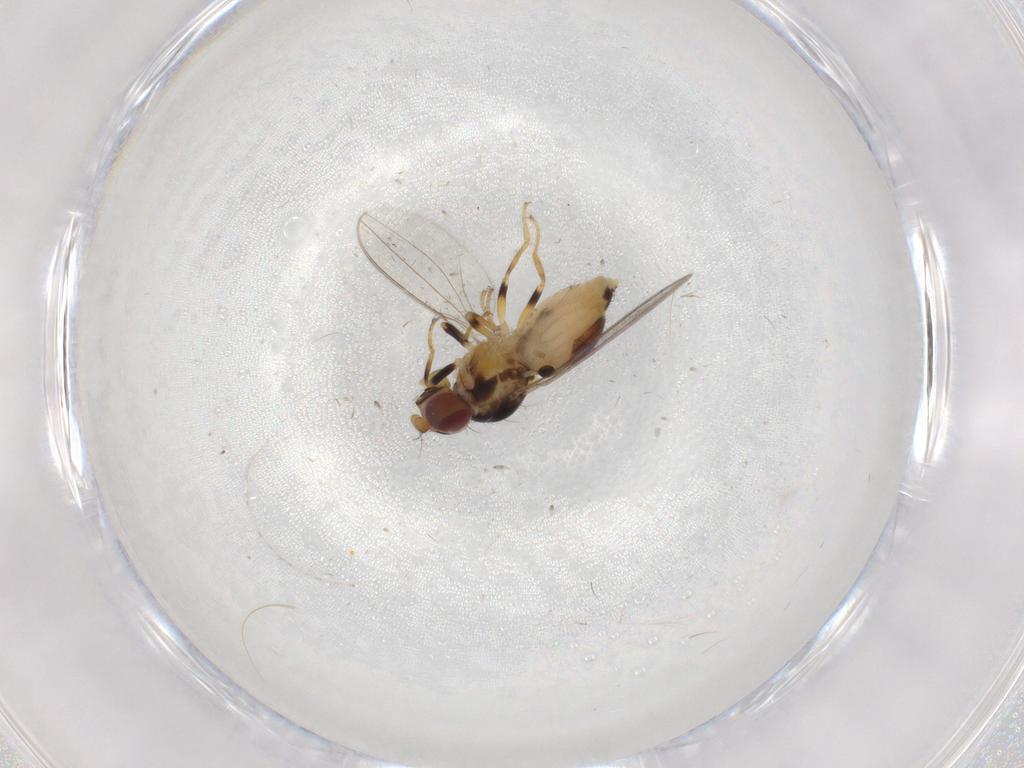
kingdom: Animalia
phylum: Arthropoda
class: Insecta
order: Diptera
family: Asteiidae
